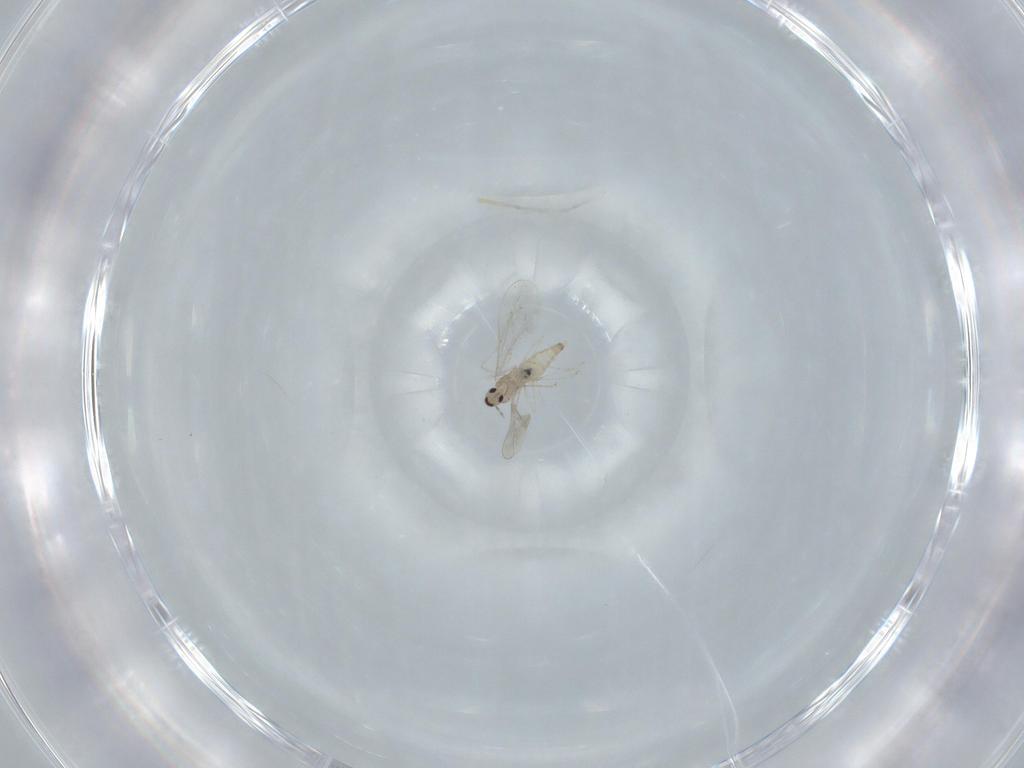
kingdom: Animalia
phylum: Arthropoda
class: Insecta
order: Diptera
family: Cecidomyiidae
